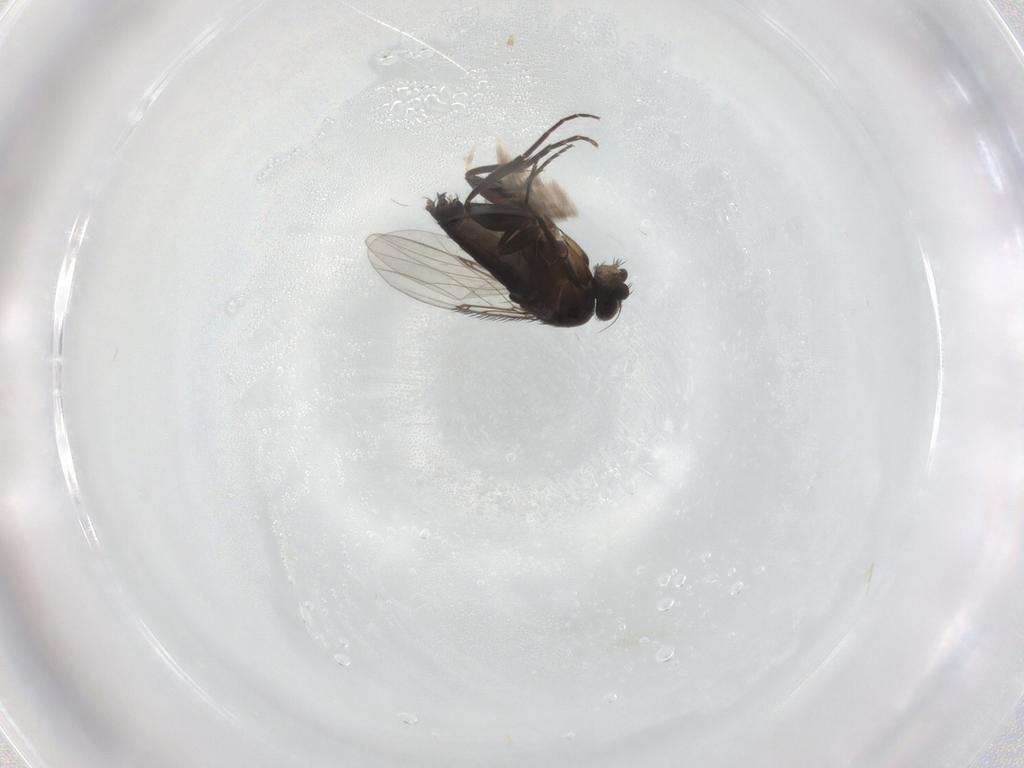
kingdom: Animalia
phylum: Arthropoda
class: Insecta
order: Diptera
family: Phoridae
